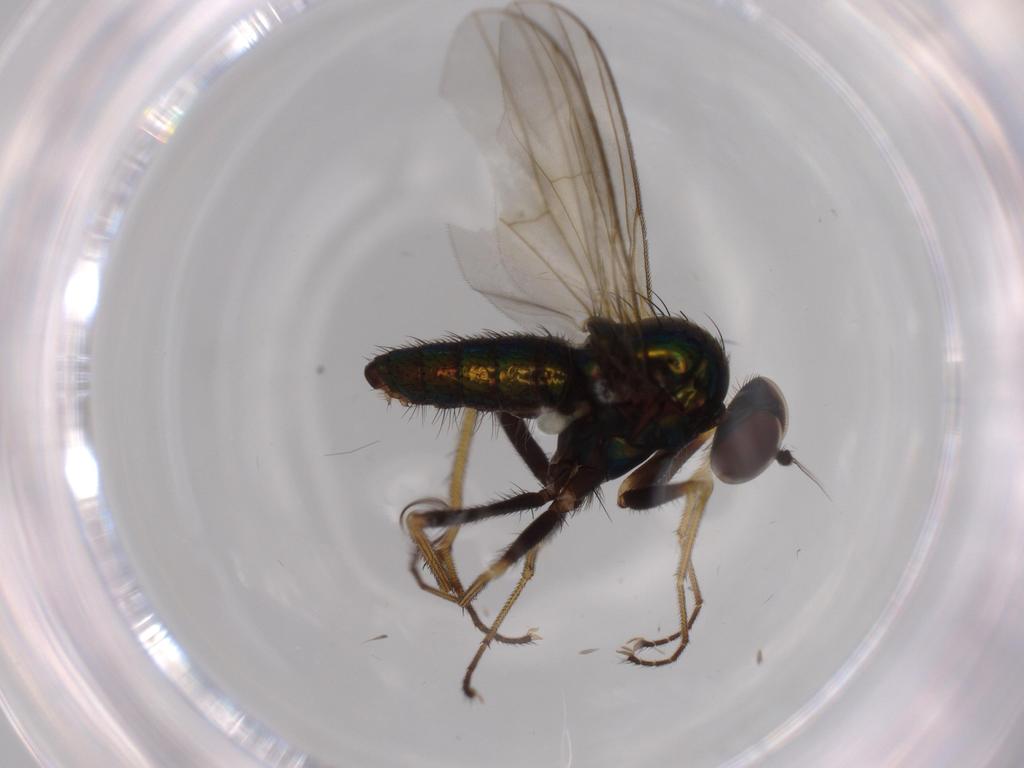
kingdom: Animalia
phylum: Arthropoda
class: Insecta
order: Diptera
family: Dolichopodidae
